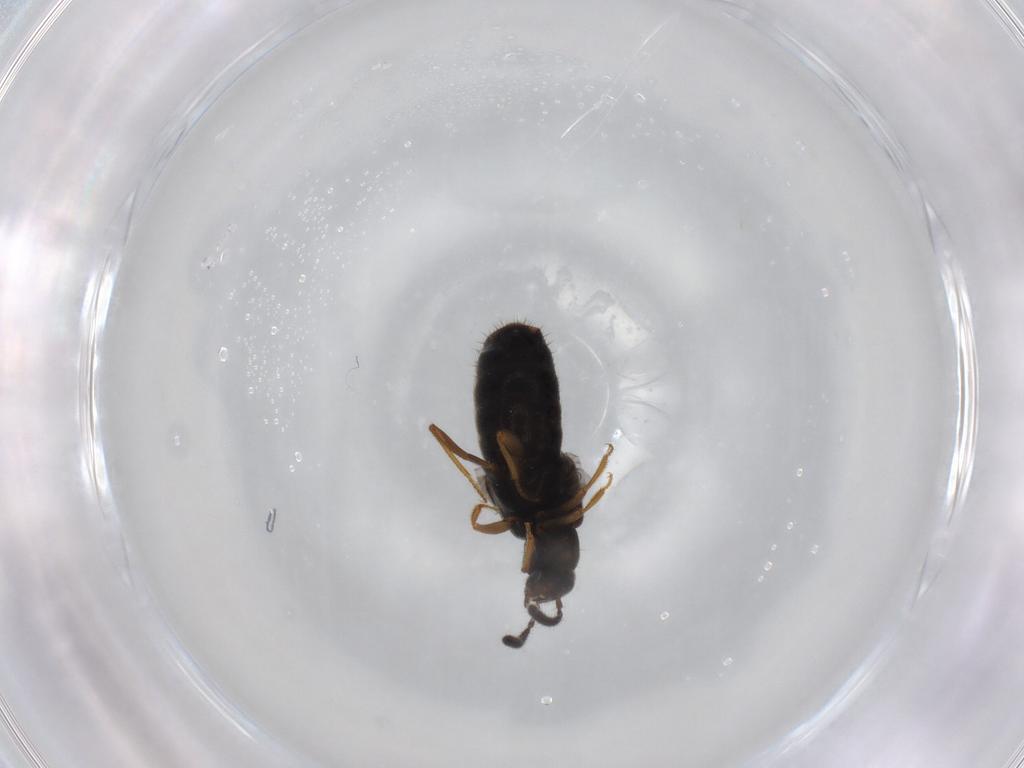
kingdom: Animalia
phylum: Arthropoda
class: Insecta
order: Coleoptera
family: Staphylinidae
